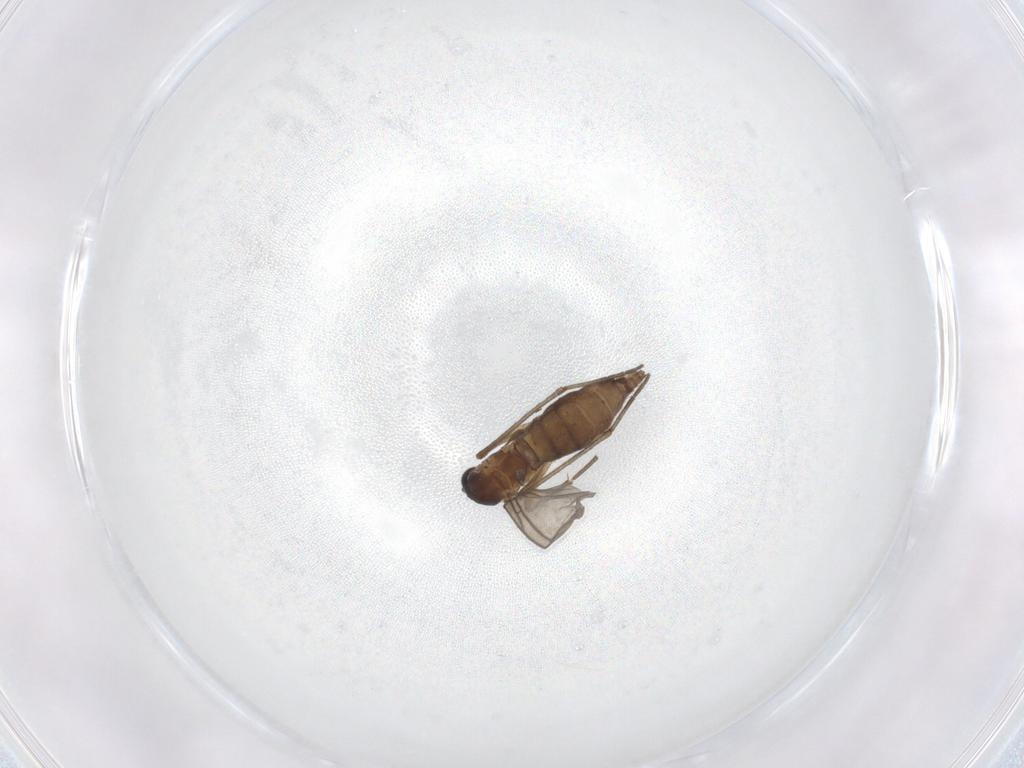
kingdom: Animalia
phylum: Arthropoda
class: Insecta
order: Diptera
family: Sciaridae
